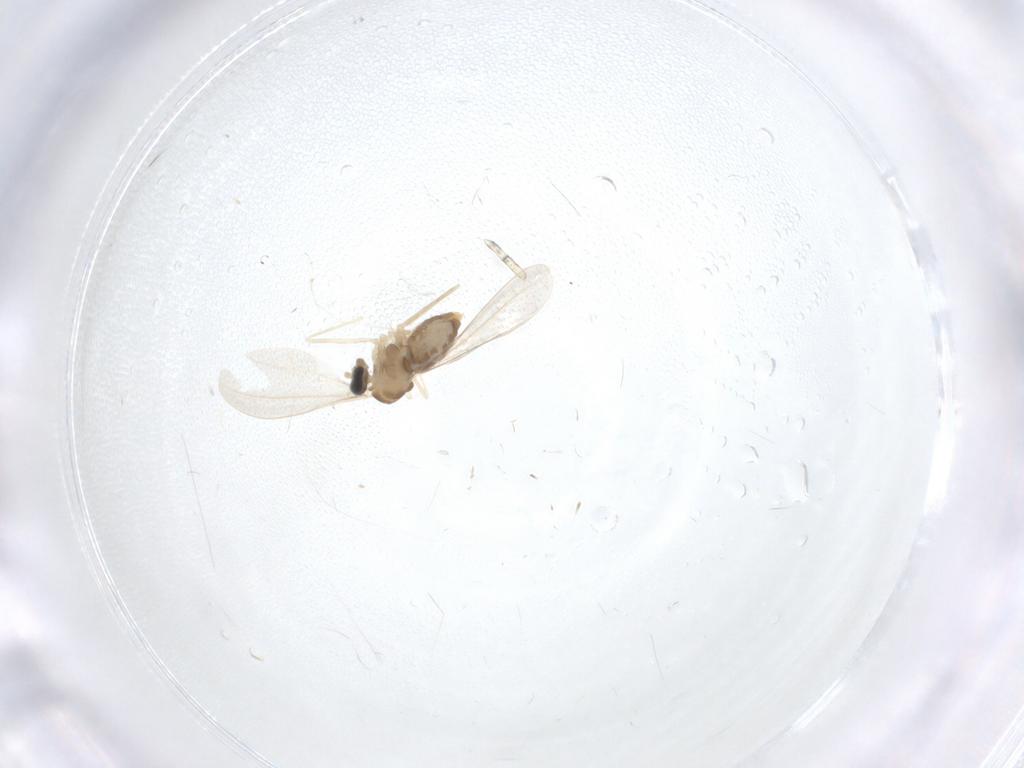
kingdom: Animalia
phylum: Arthropoda
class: Insecta
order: Diptera
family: Cecidomyiidae
